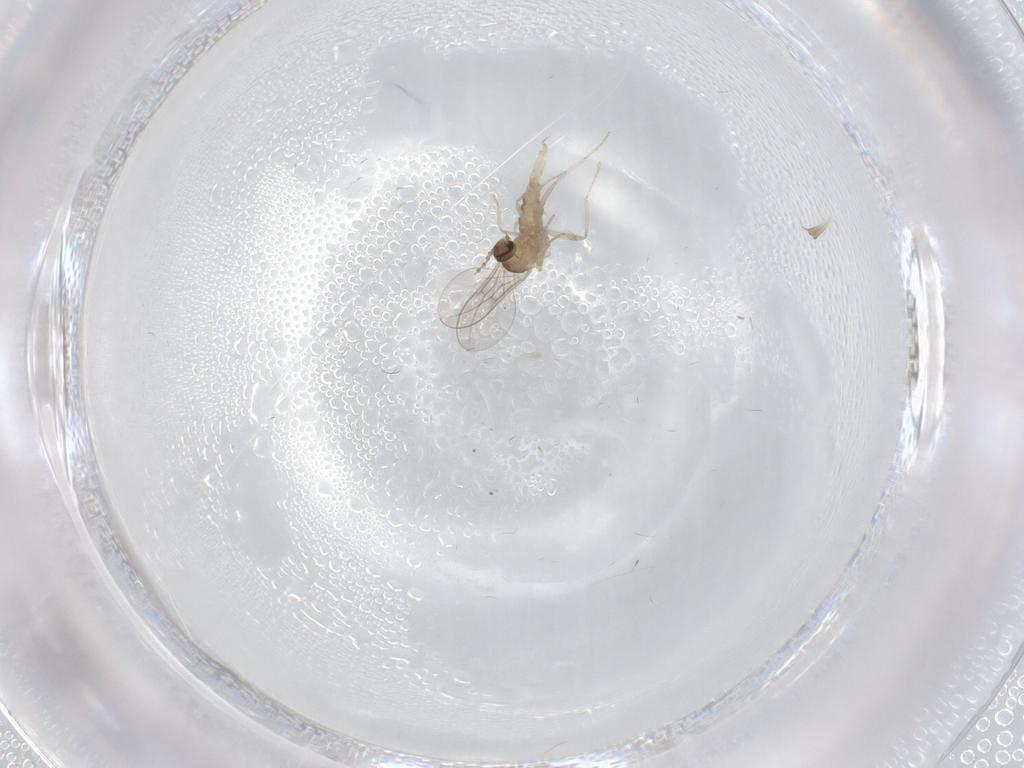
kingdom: Animalia
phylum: Arthropoda
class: Insecta
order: Diptera
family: Cecidomyiidae
